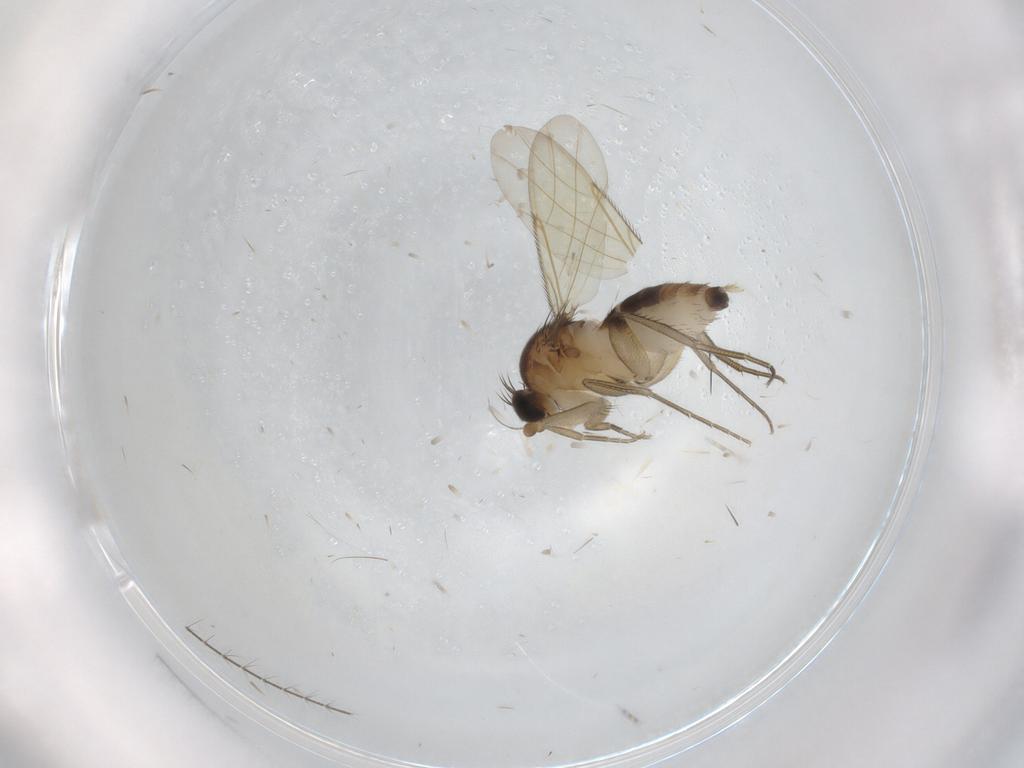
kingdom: Animalia
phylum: Arthropoda
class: Insecta
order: Diptera
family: Phoridae
